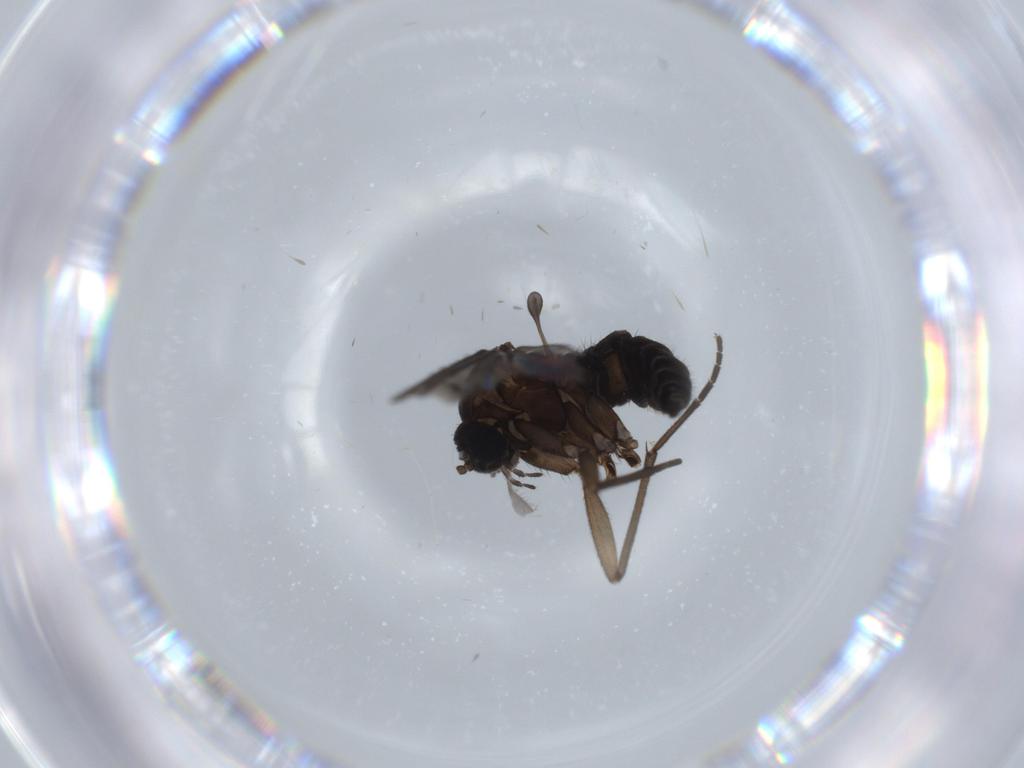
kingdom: Animalia
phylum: Arthropoda
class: Insecta
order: Diptera
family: Sciaridae
